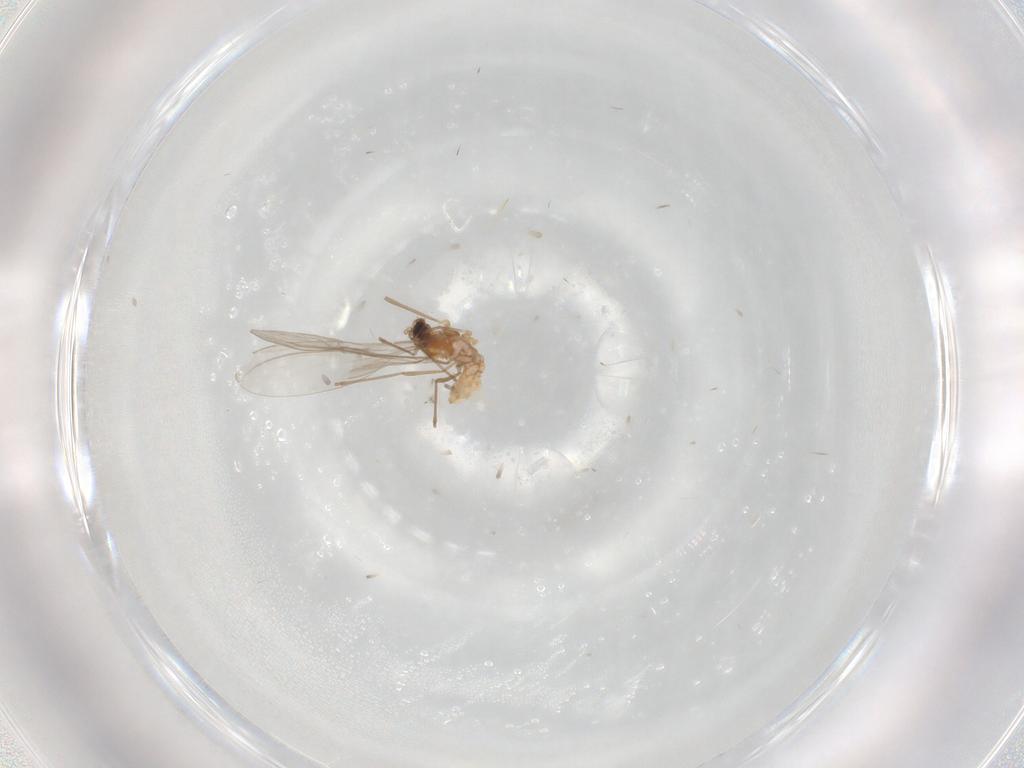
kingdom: Animalia
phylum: Arthropoda
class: Insecta
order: Diptera
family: Cecidomyiidae
